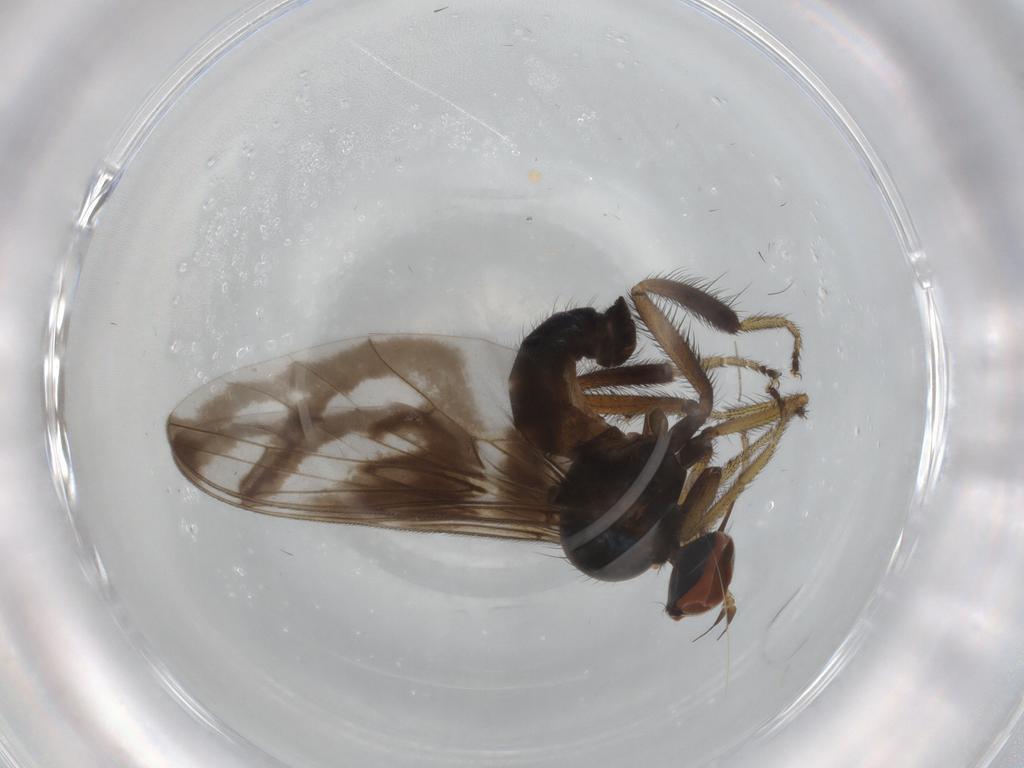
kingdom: Animalia
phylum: Arthropoda
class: Insecta
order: Diptera
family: Empididae
